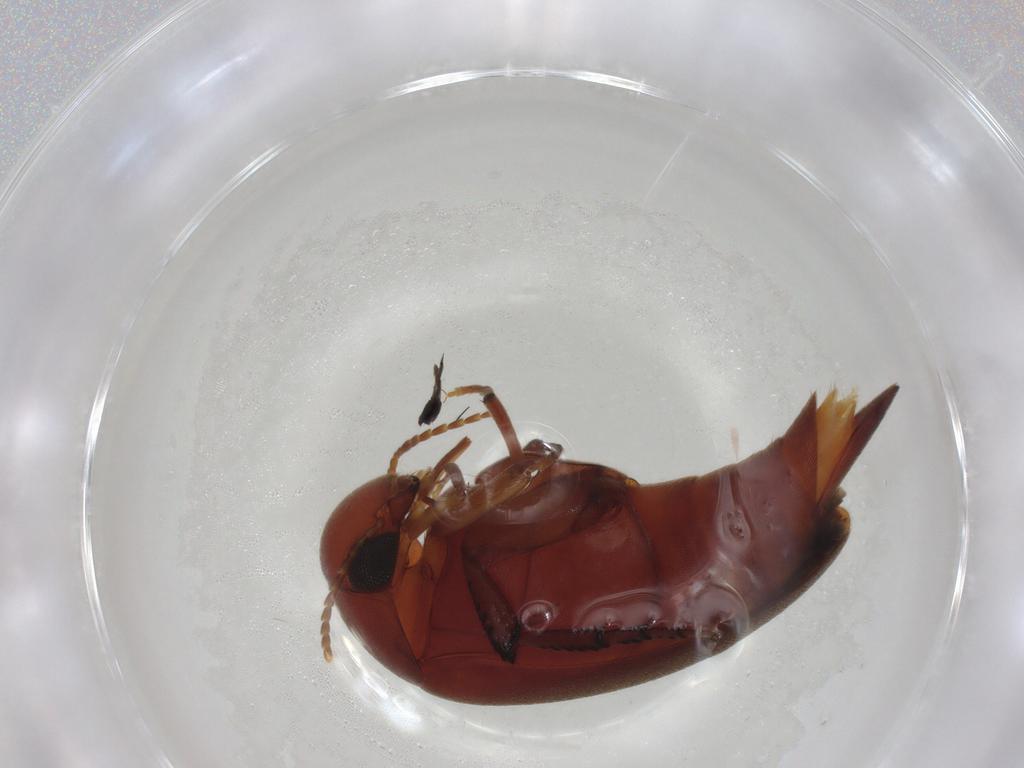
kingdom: Animalia
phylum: Arthropoda
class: Insecta
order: Coleoptera
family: Mordellidae
